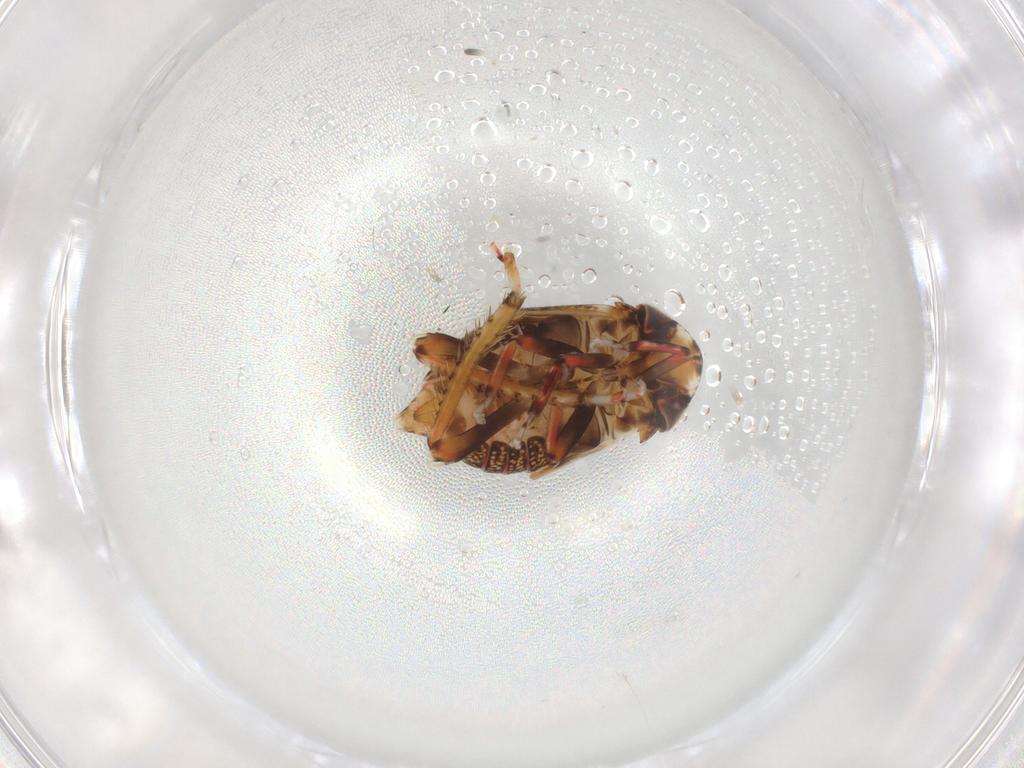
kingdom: Animalia
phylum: Arthropoda
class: Insecta
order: Hemiptera
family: Cicadellidae
